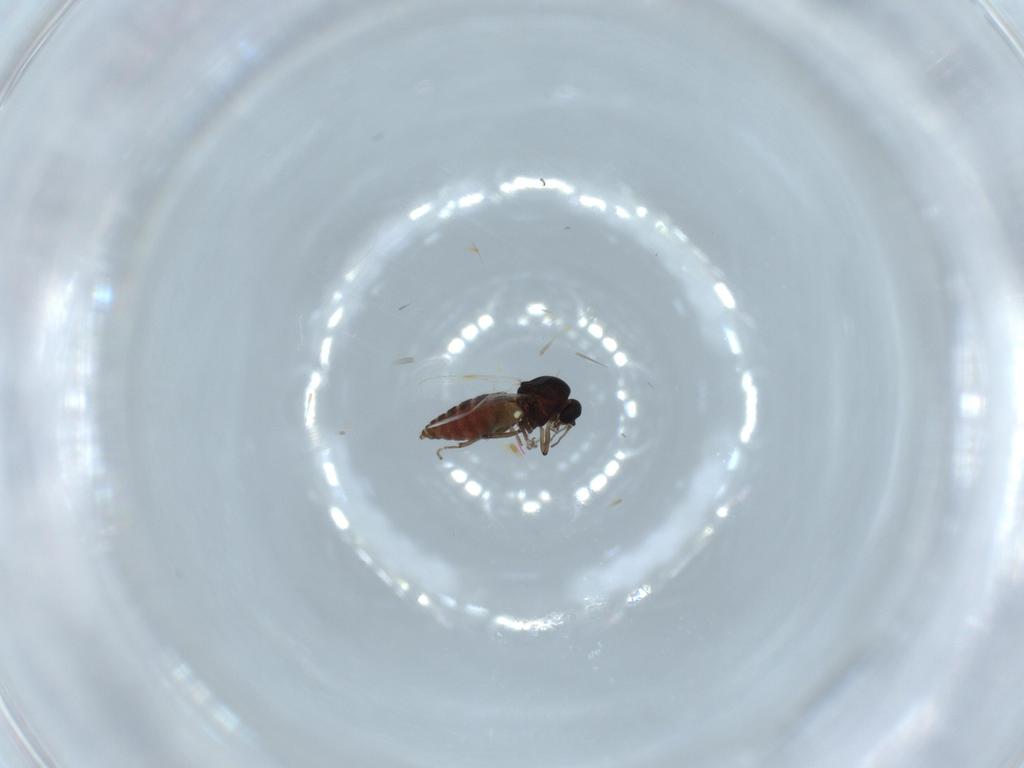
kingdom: Animalia
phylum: Arthropoda
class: Insecta
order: Diptera
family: Ceratopogonidae
